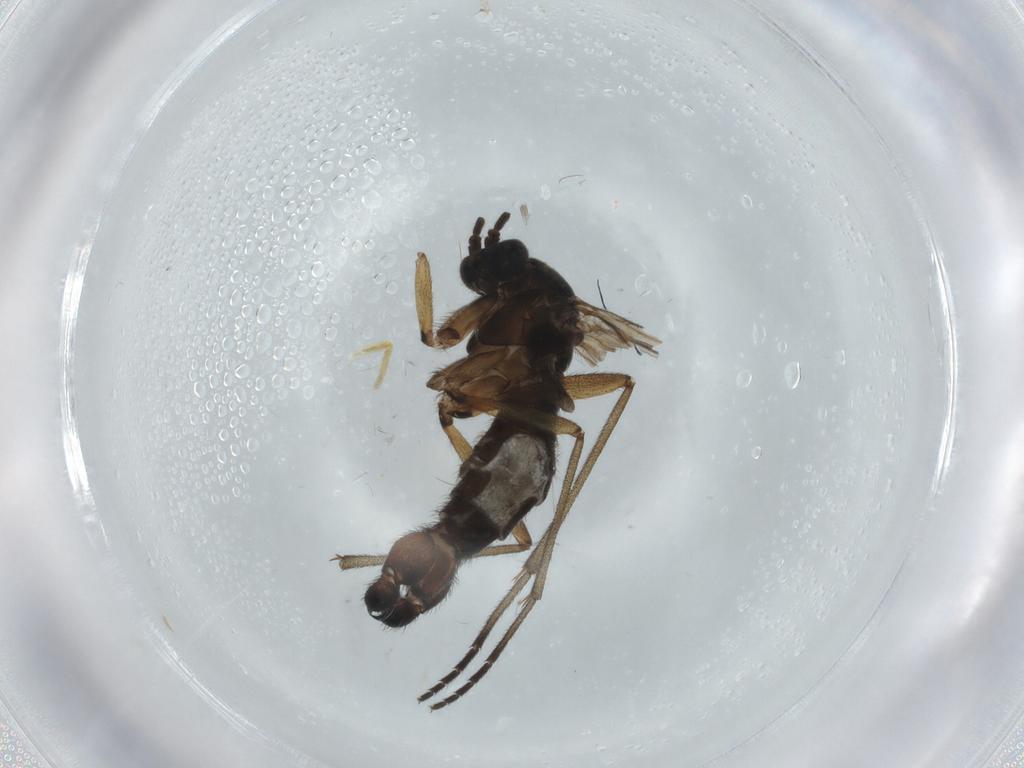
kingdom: Animalia
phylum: Arthropoda
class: Insecta
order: Diptera
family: Sciaridae
